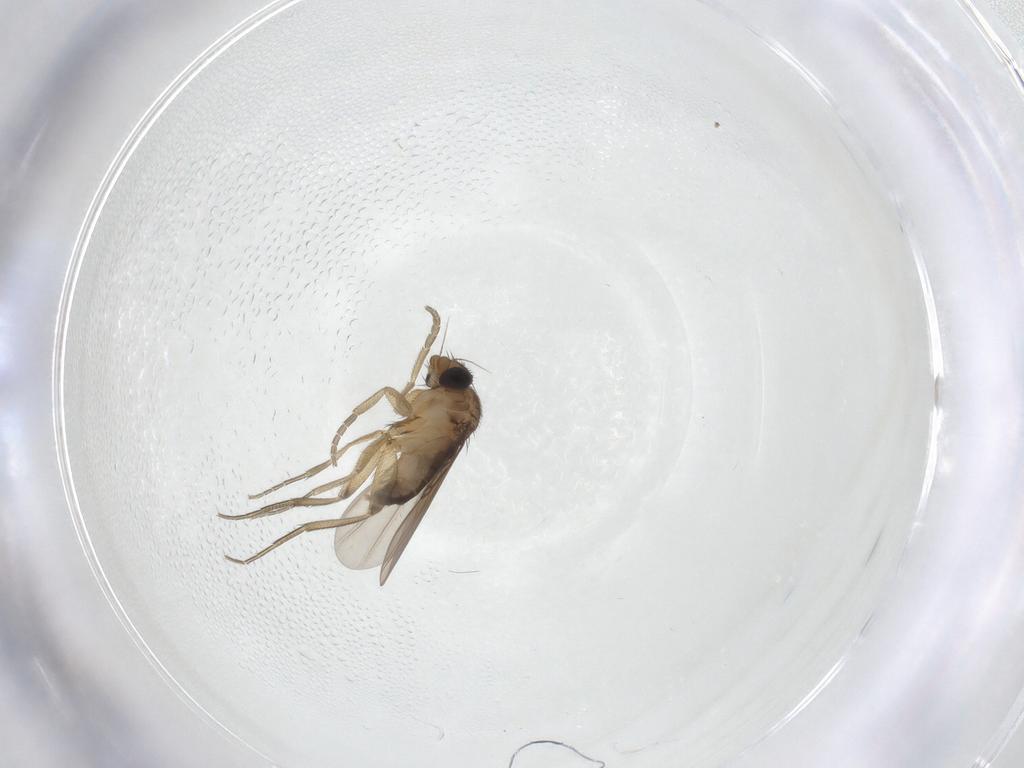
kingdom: Animalia
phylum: Arthropoda
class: Insecta
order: Diptera
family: Phoridae
